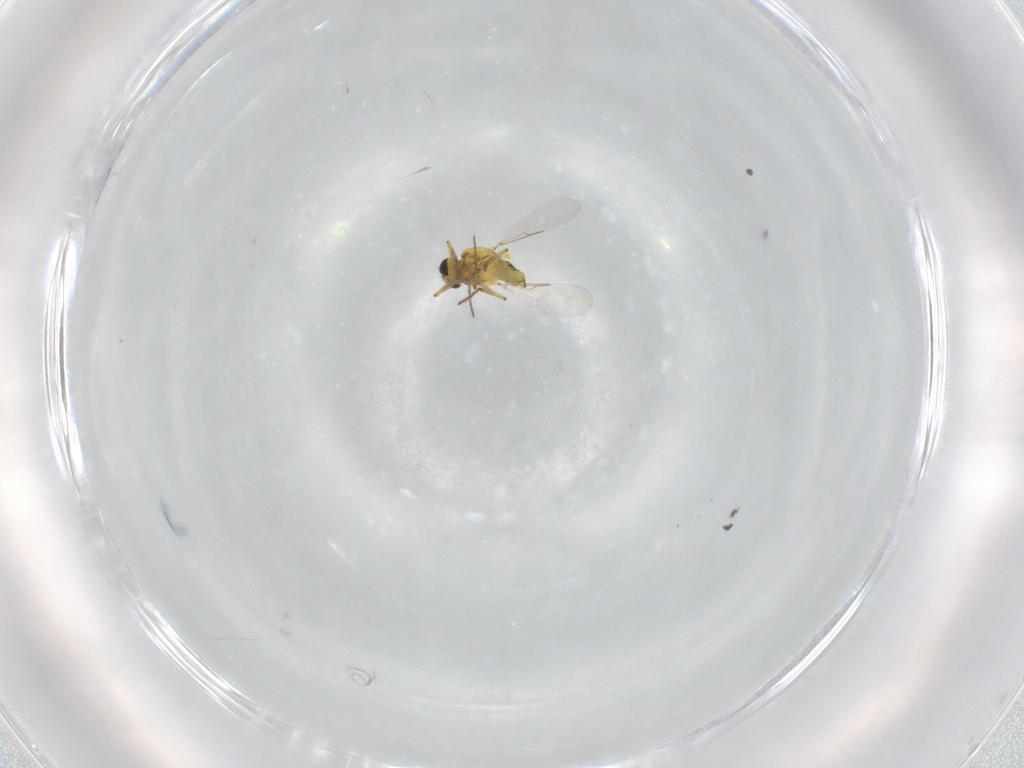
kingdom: Animalia
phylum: Arthropoda
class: Insecta
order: Diptera
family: Ceratopogonidae
